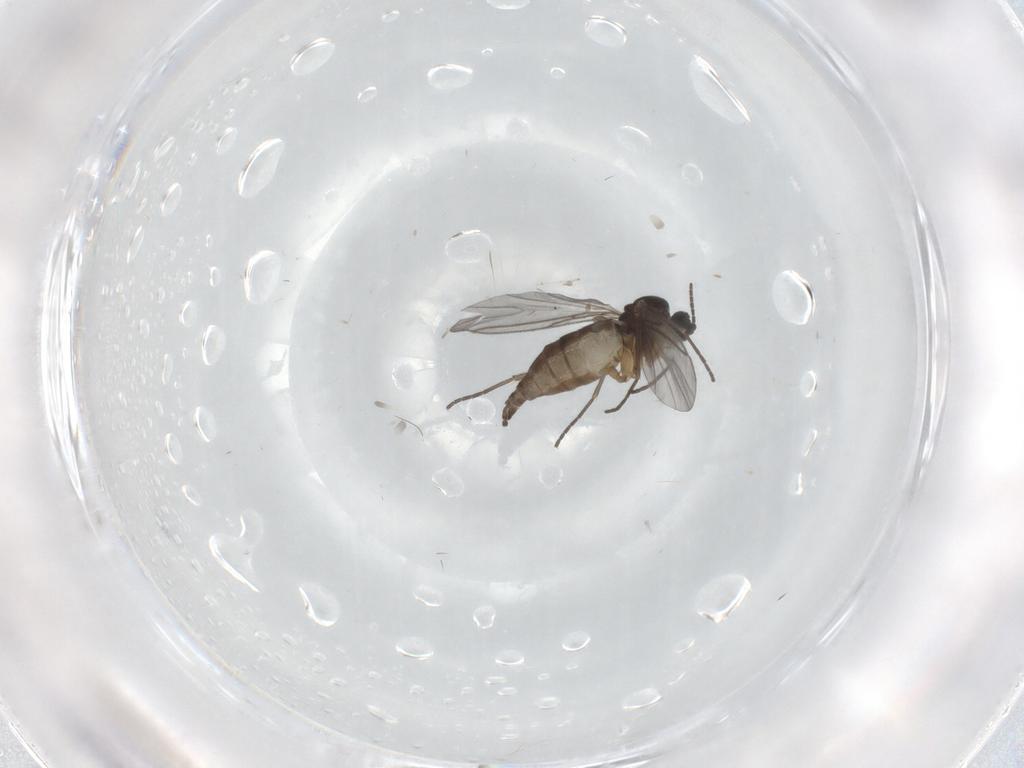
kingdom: Animalia
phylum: Arthropoda
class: Insecta
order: Diptera
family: Sciaridae
